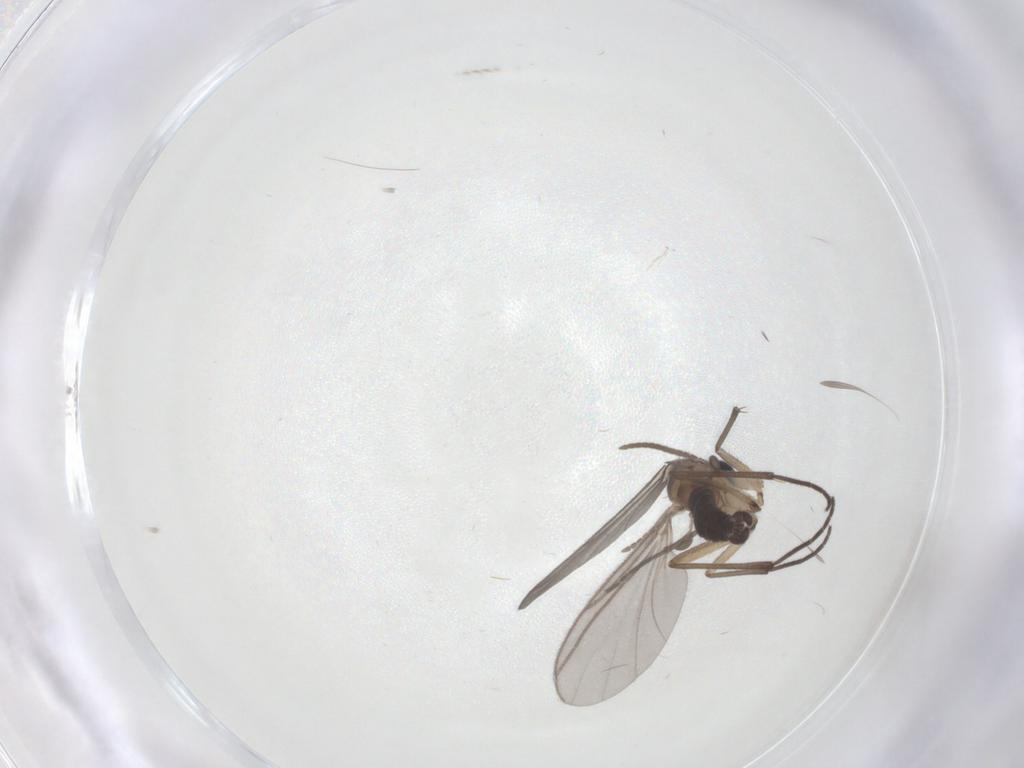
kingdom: Animalia
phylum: Arthropoda
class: Insecta
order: Diptera
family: Sciaridae
